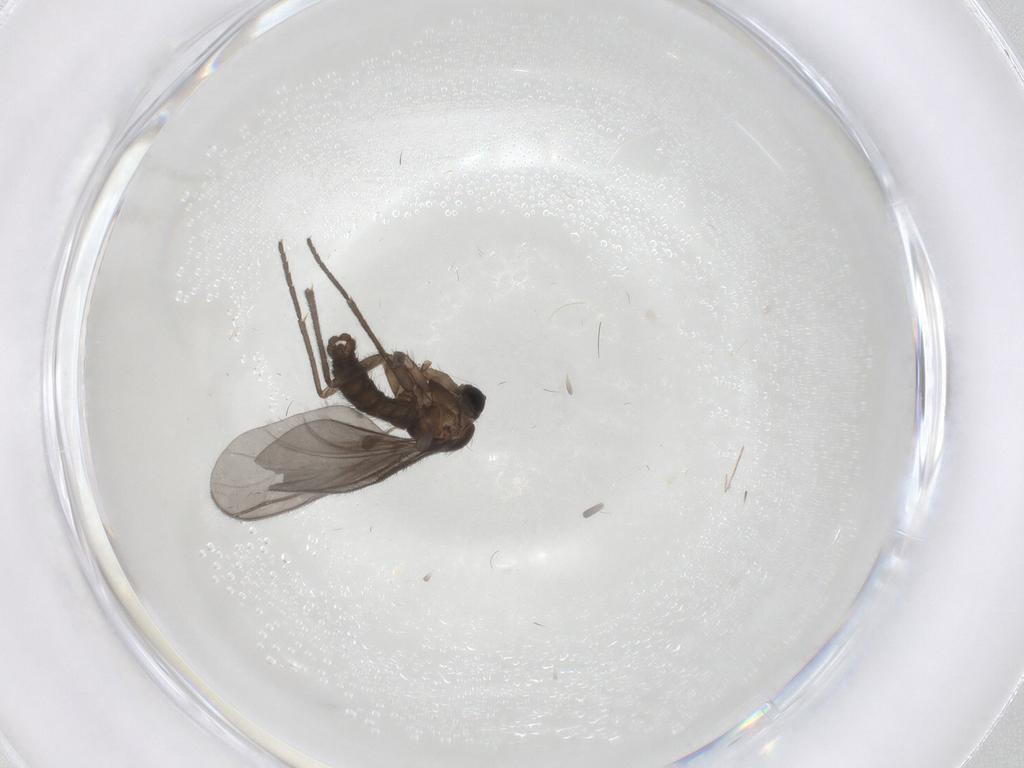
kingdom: Animalia
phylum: Arthropoda
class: Insecta
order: Diptera
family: Sciaridae
